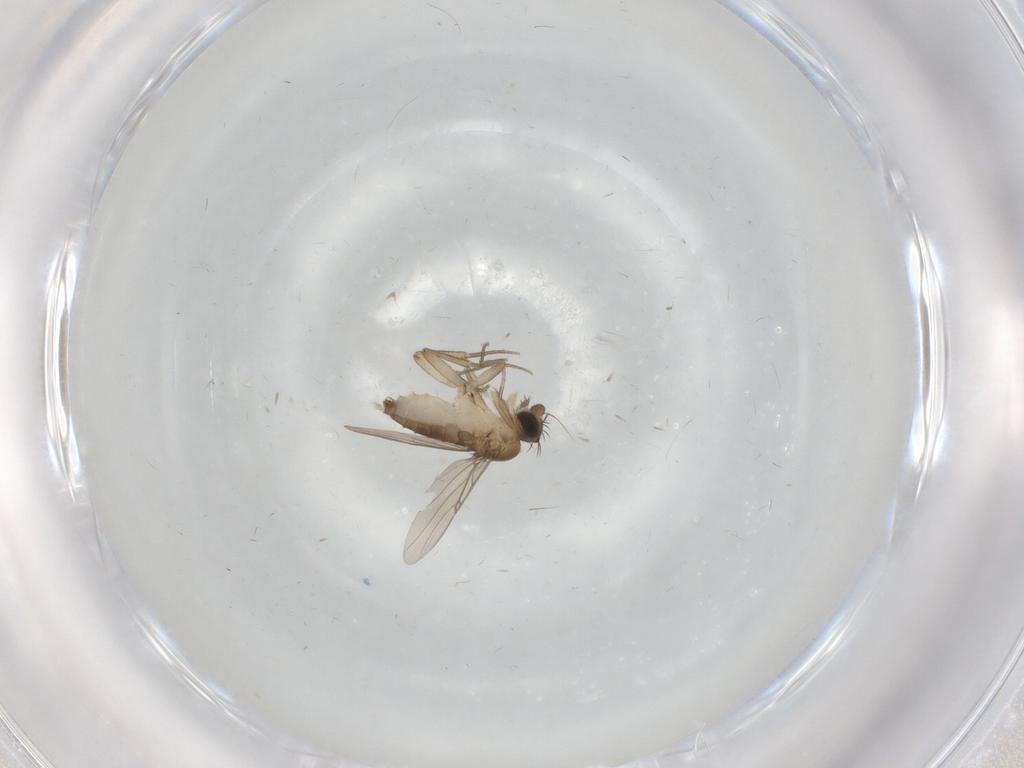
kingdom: Animalia
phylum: Arthropoda
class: Insecta
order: Diptera
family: Phoridae
